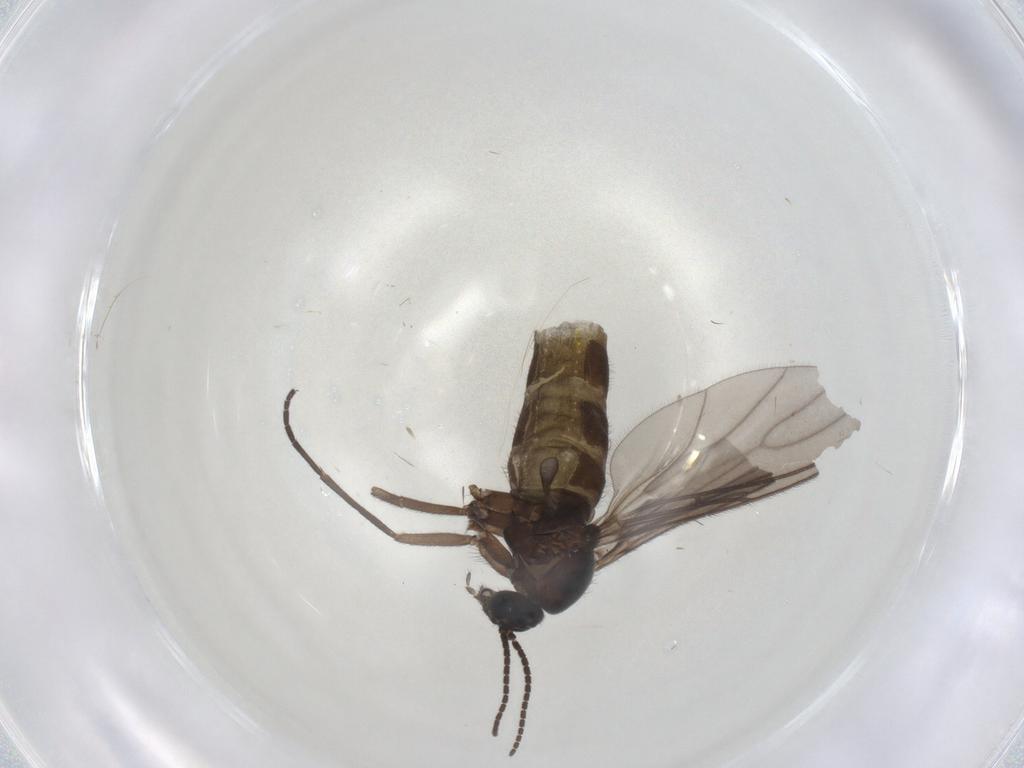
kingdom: Animalia
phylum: Arthropoda
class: Insecta
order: Diptera
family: Sciaridae
